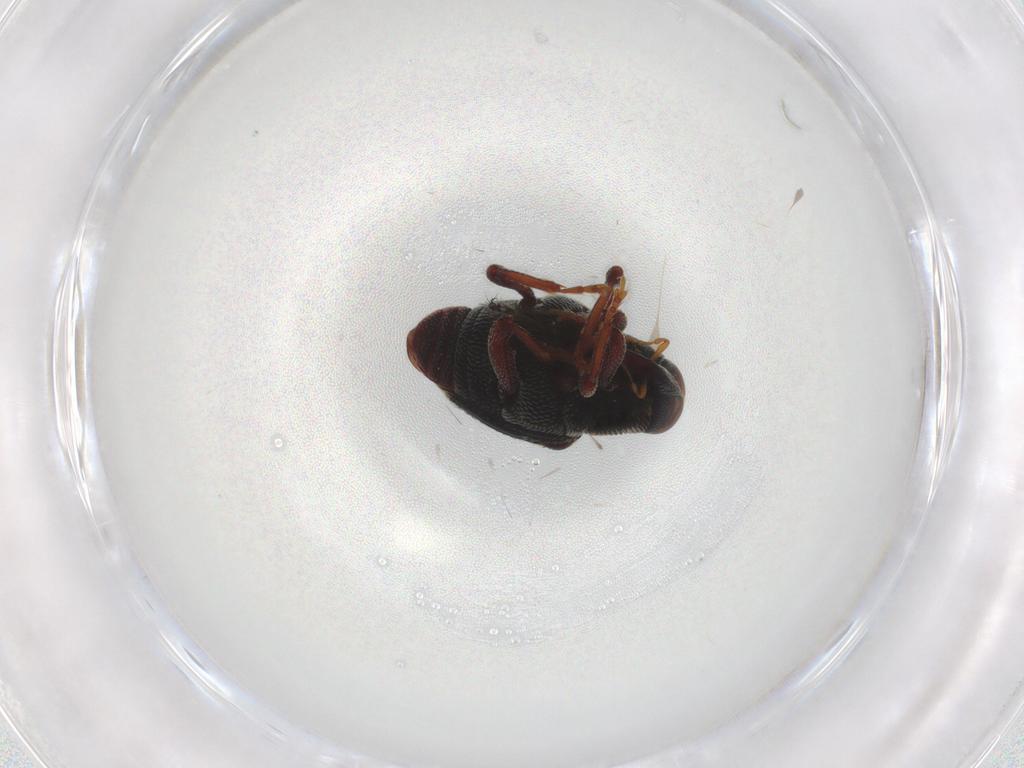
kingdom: Animalia
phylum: Arthropoda
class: Insecta
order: Coleoptera
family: Curculionidae
